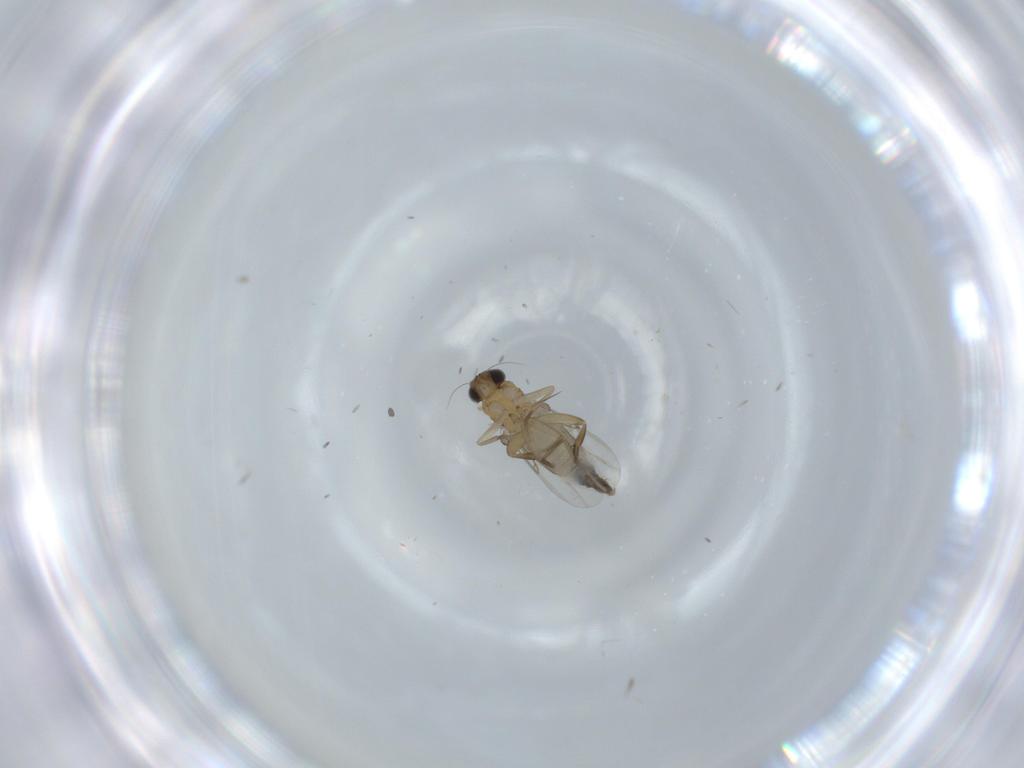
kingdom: Animalia
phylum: Arthropoda
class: Insecta
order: Diptera
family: Phoridae
